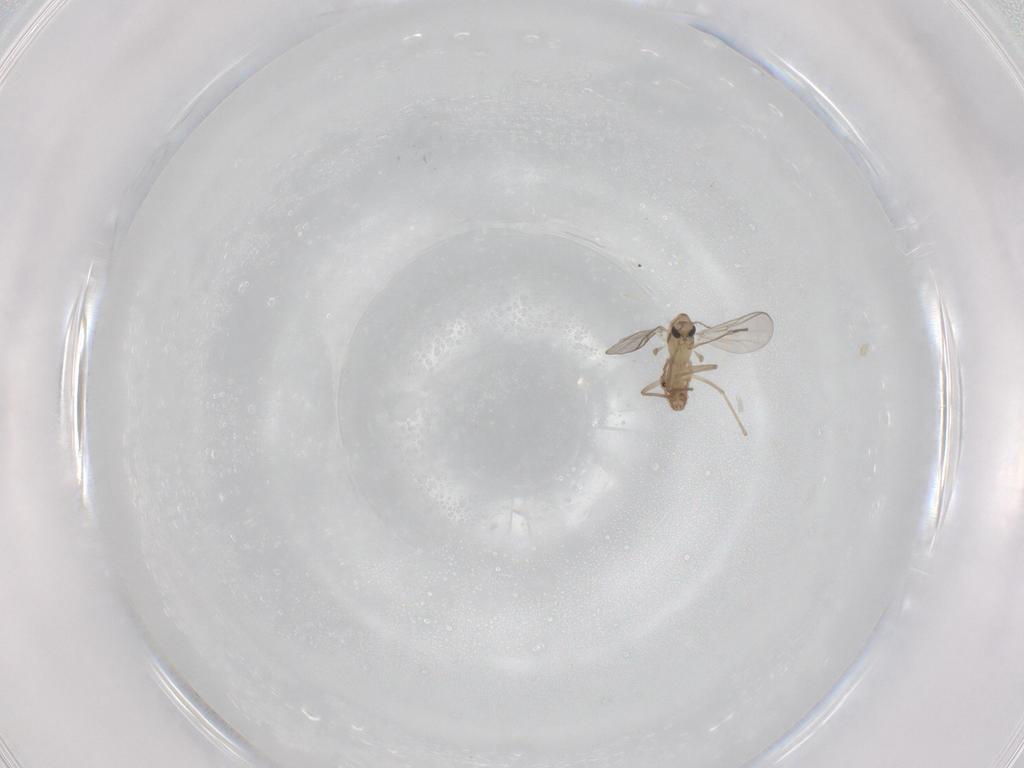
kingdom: Animalia
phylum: Arthropoda
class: Insecta
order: Diptera
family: Chironomidae
